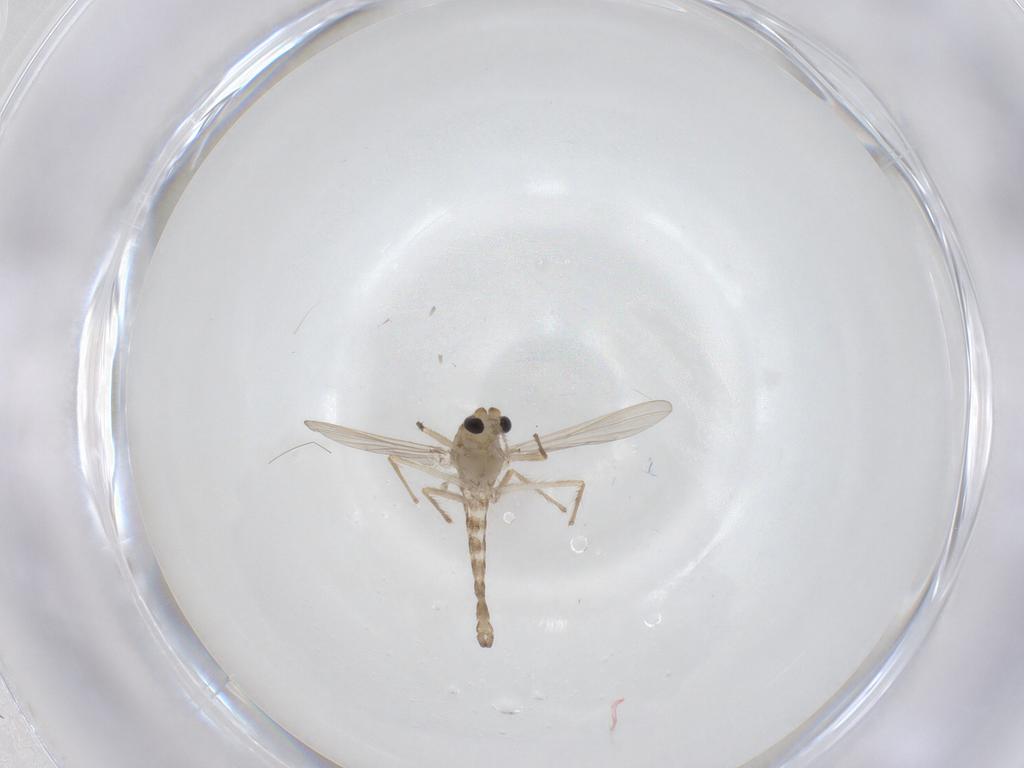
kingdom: Animalia
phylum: Arthropoda
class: Insecta
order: Diptera
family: Chironomidae
